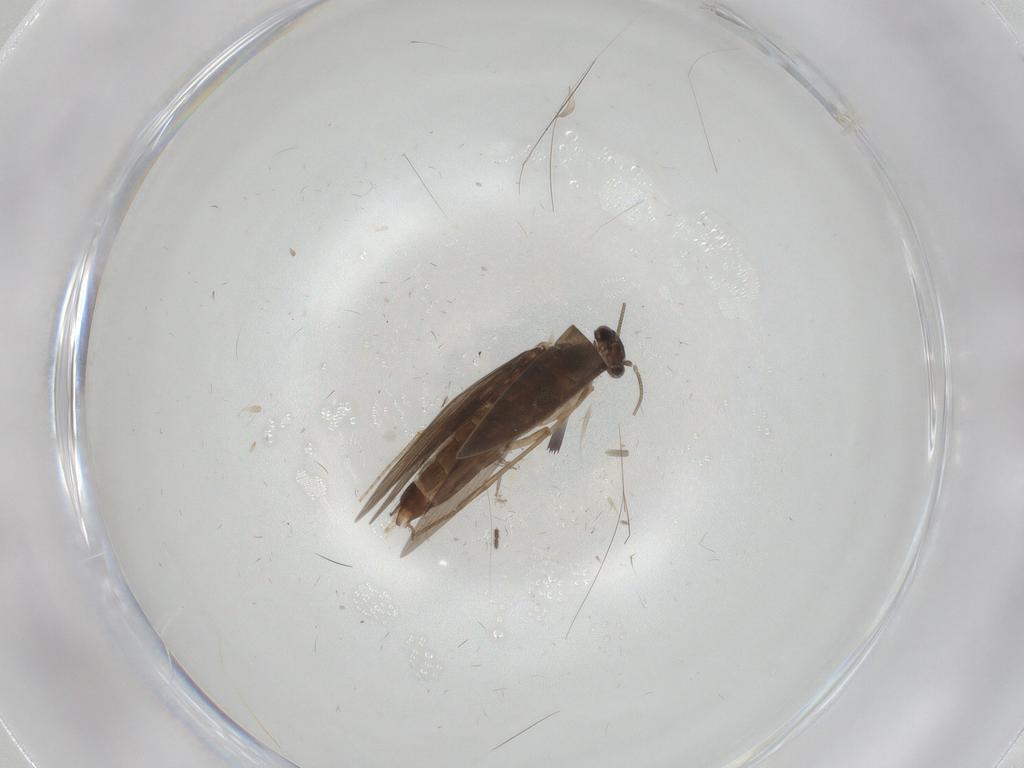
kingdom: Animalia
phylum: Arthropoda
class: Insecta
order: Trichoptera
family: Hydroptilidae
